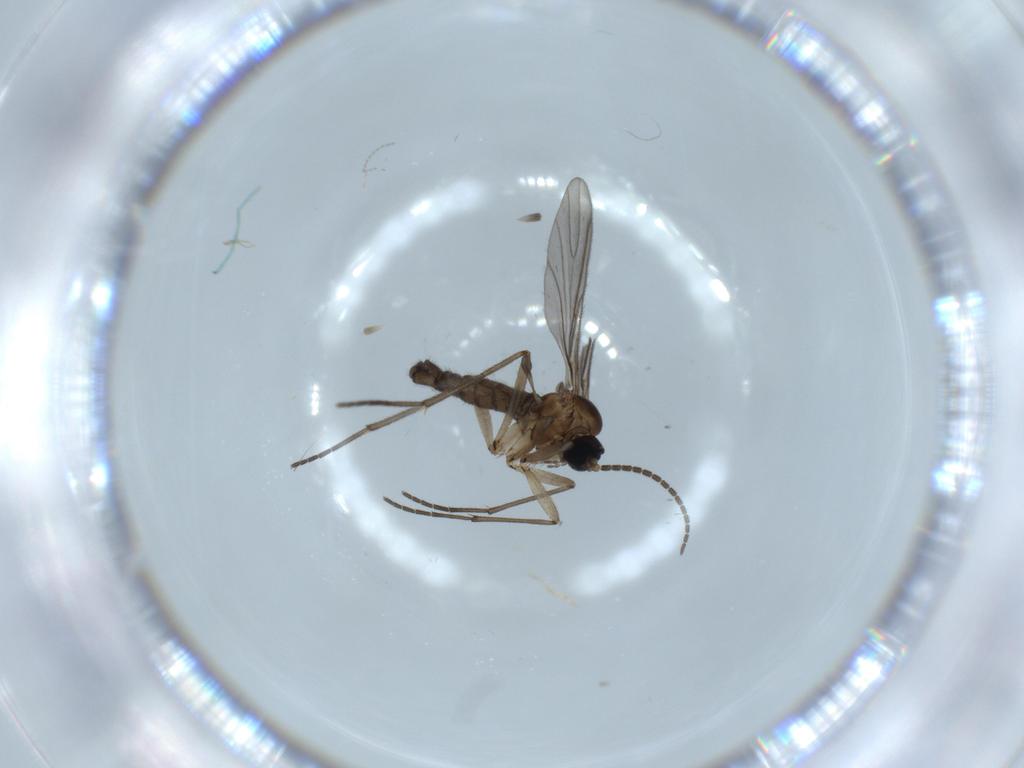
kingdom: Animalia
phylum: Arthropoda
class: Insecta
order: Diptera
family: Sciaridae
